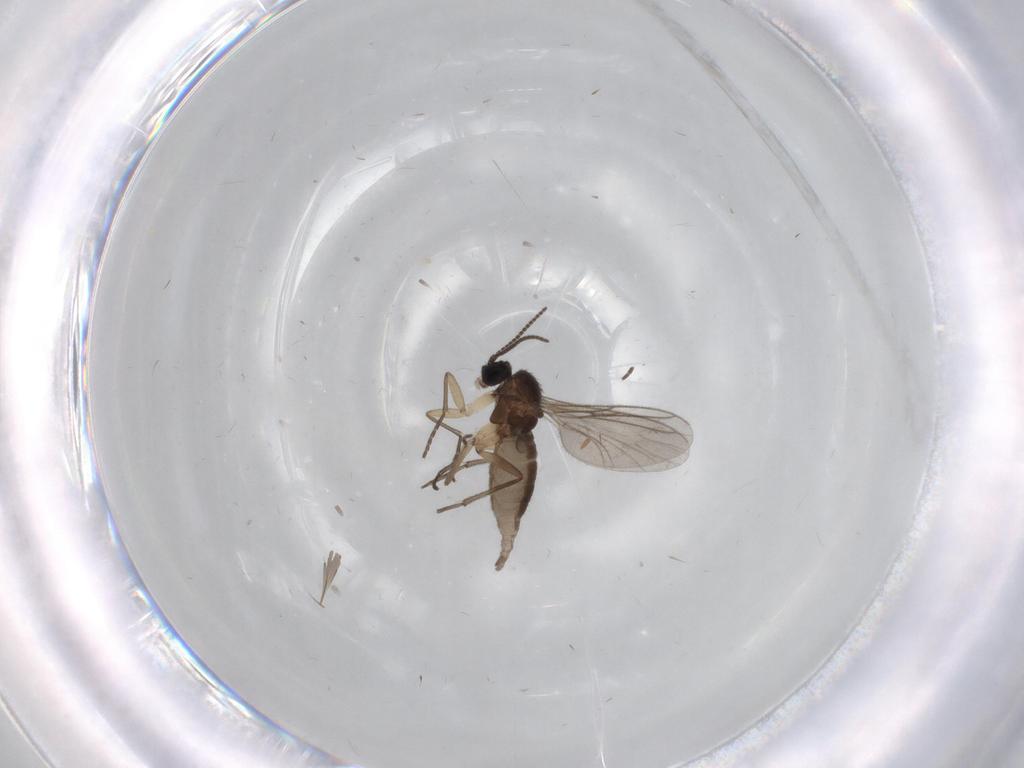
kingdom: Animalia
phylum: Arthropoda
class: Insecta
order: Diptera
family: Sciaridae
